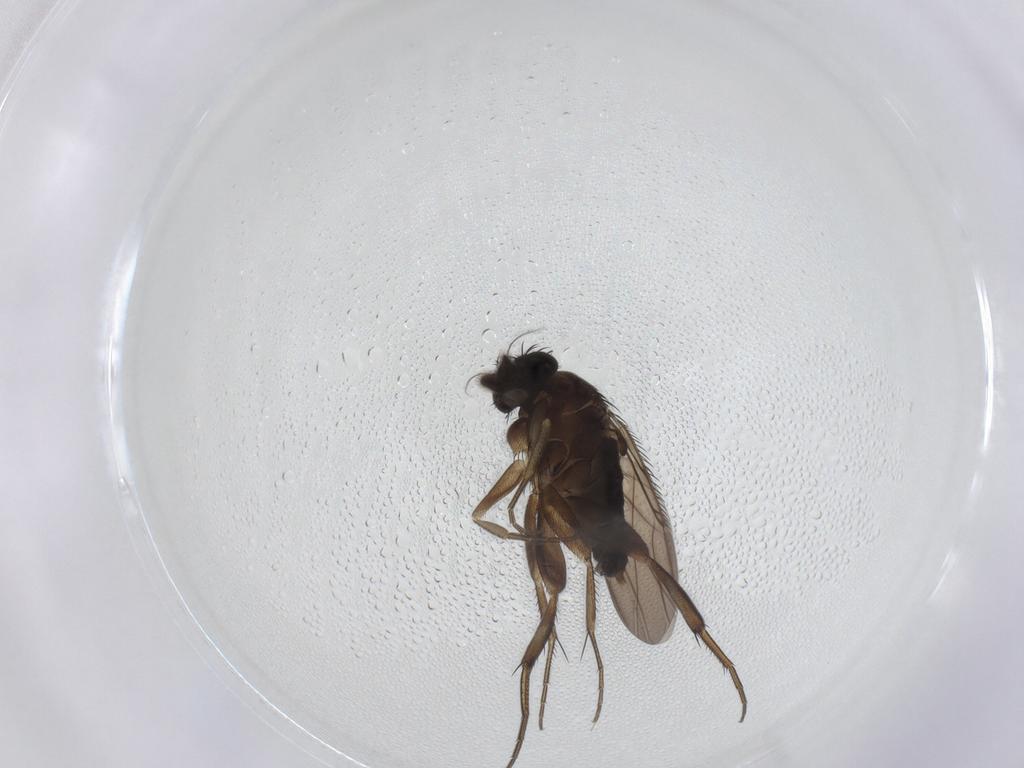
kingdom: Animalia
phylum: Arthropoda
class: Insecta
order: Diptera
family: Phoridae
